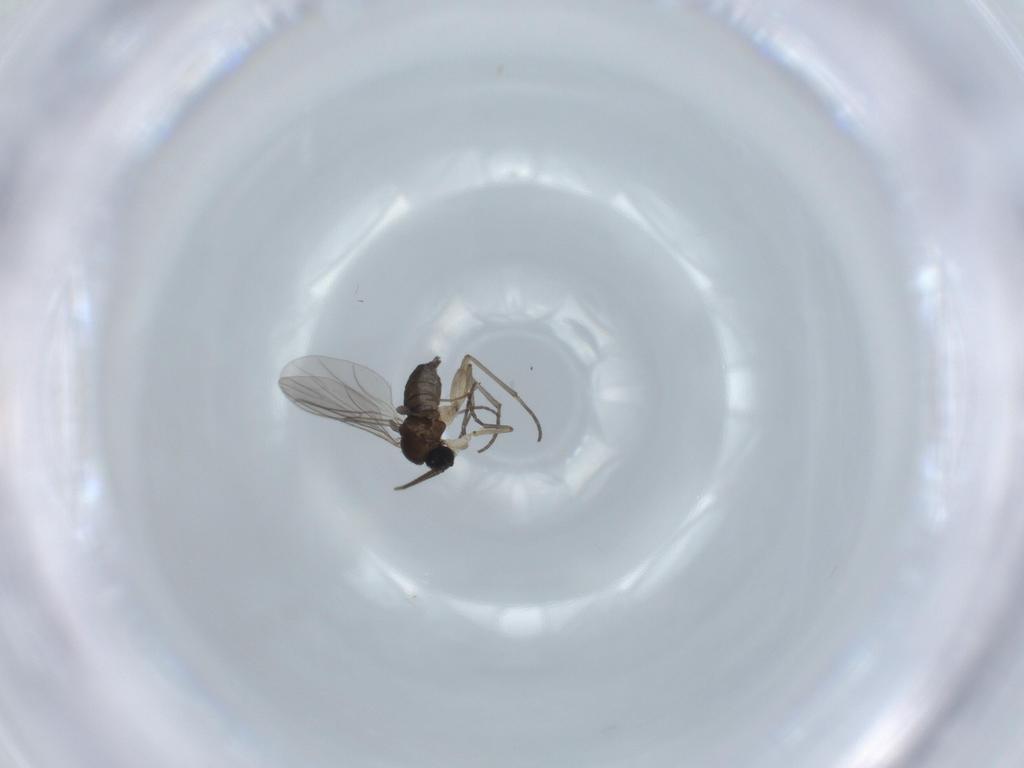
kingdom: Animalia
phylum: Arthropoda
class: Insecta
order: Diptera
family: Sciaridae
